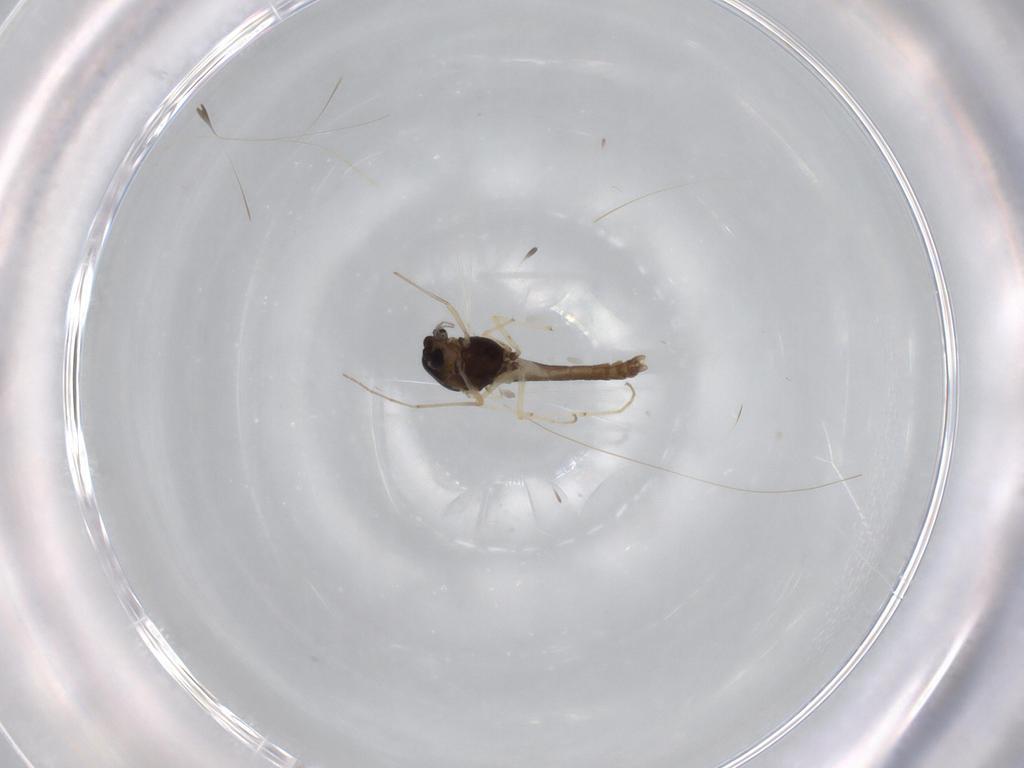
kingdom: Animalia
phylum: Arthropoda
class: Insecta
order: Diptera
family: Chironomidae
